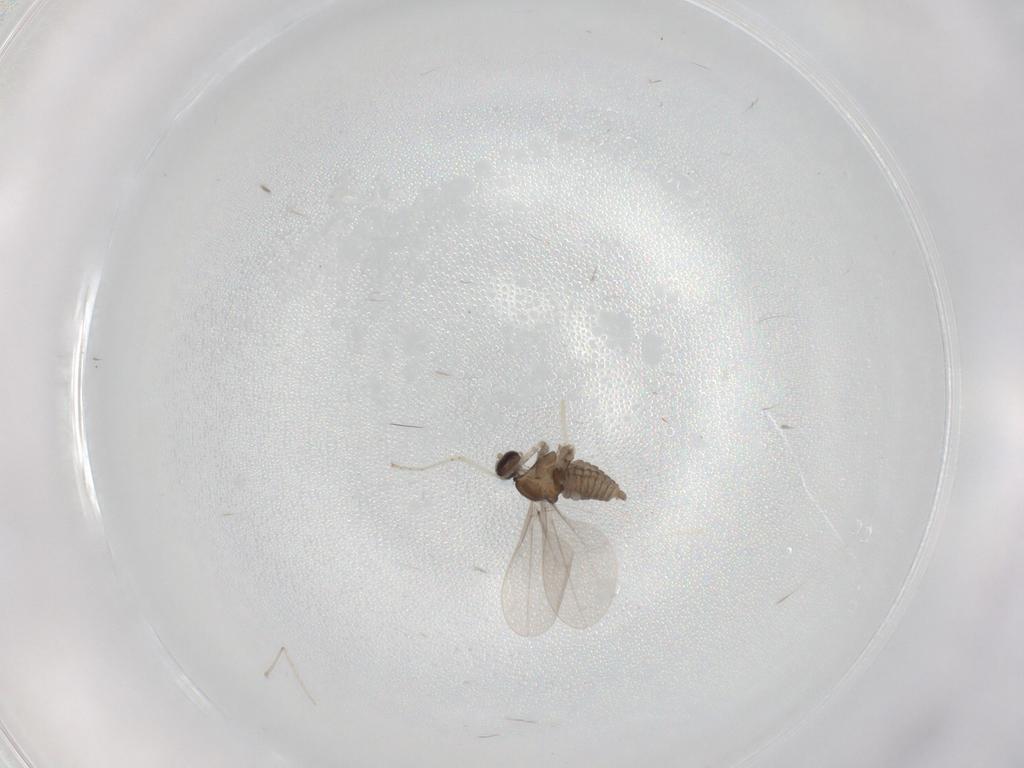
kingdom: Animalia
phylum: Arthropoda
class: Insecta
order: Diptera
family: Cecidomyiidae
